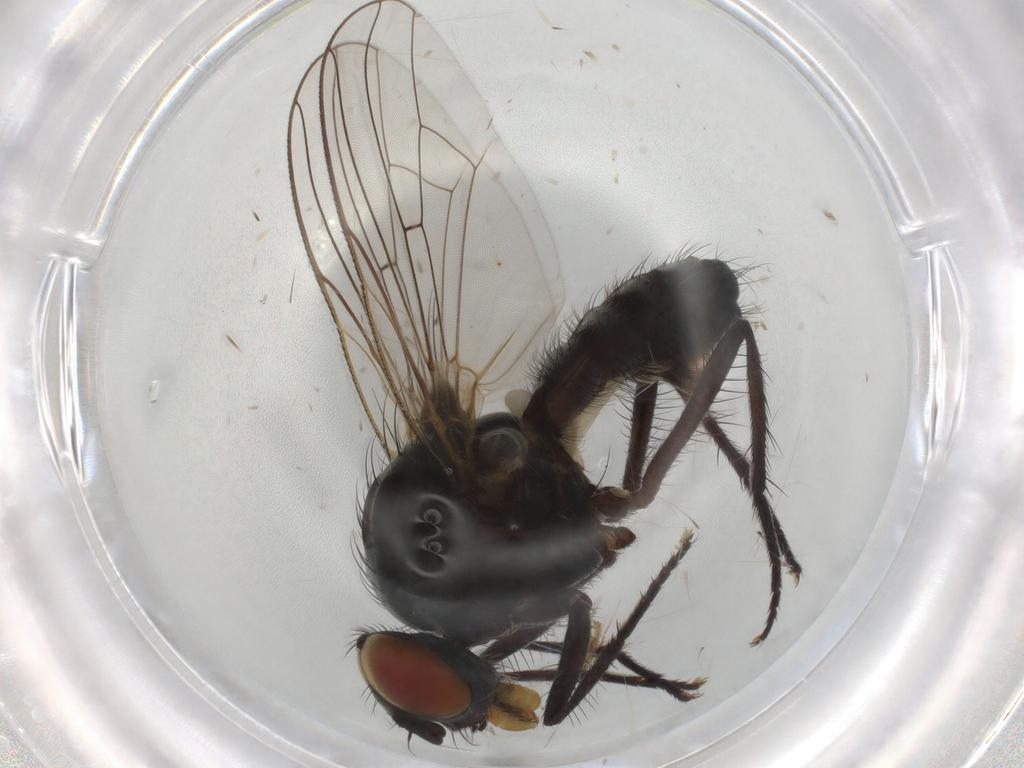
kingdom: Animalia
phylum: Arthropoda
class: Insecta
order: Diptera
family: Anthomyiidae
